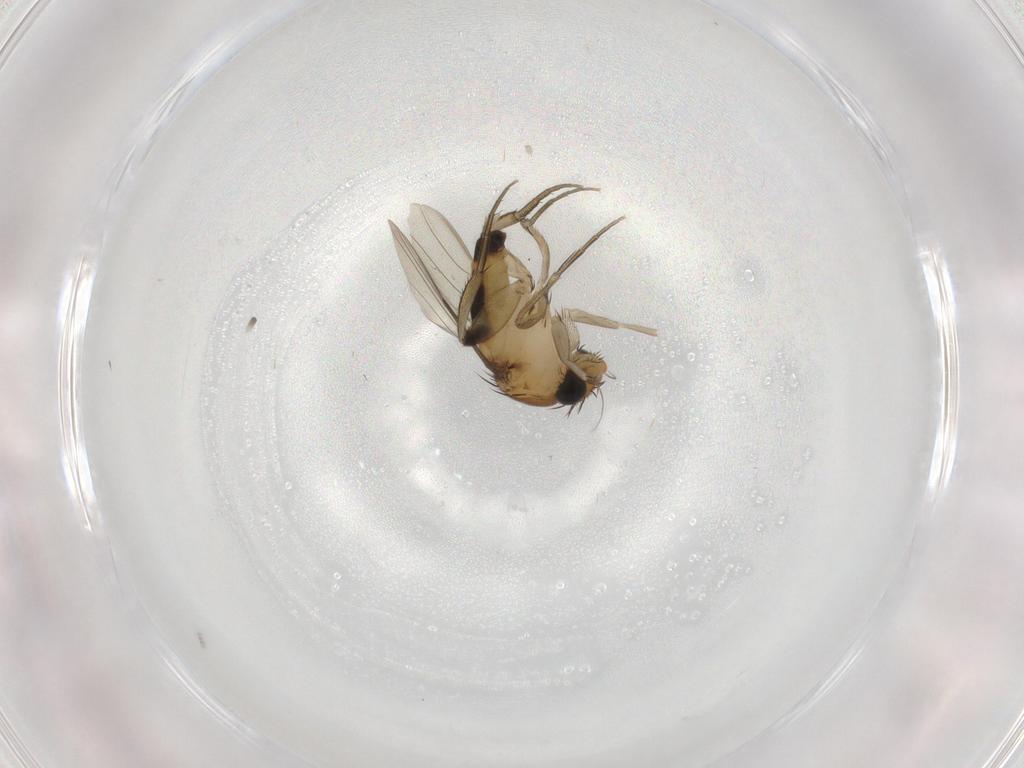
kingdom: Animalia
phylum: Arthropoda
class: Insecta
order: Diptera
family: Phoridae
